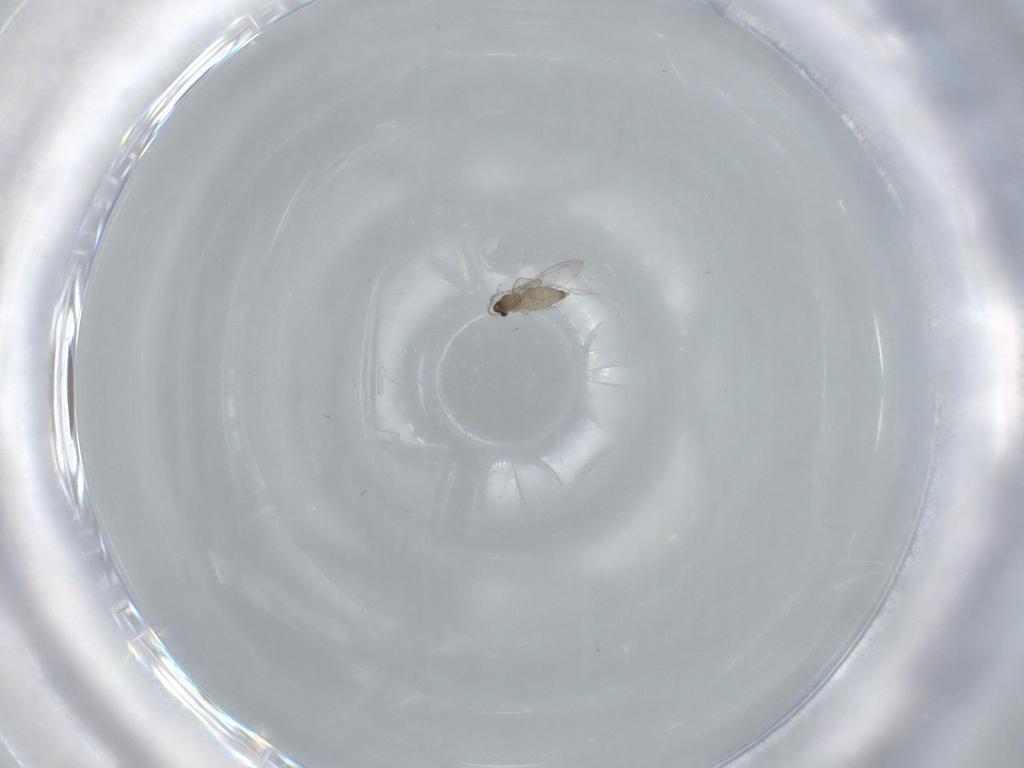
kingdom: Animalia
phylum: Arthropoda
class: Insecta
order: Diptera
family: Cecidomyiidae
